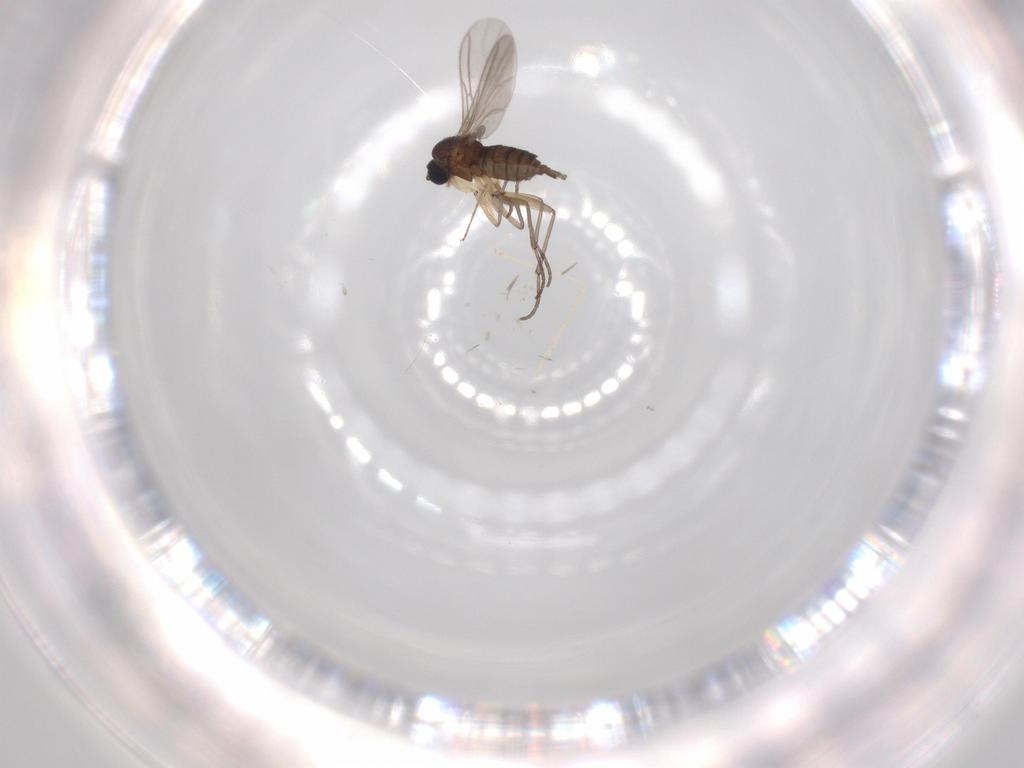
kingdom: Animalia
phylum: Arthropoda
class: Insecta
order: Diptera
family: Sciaridae
